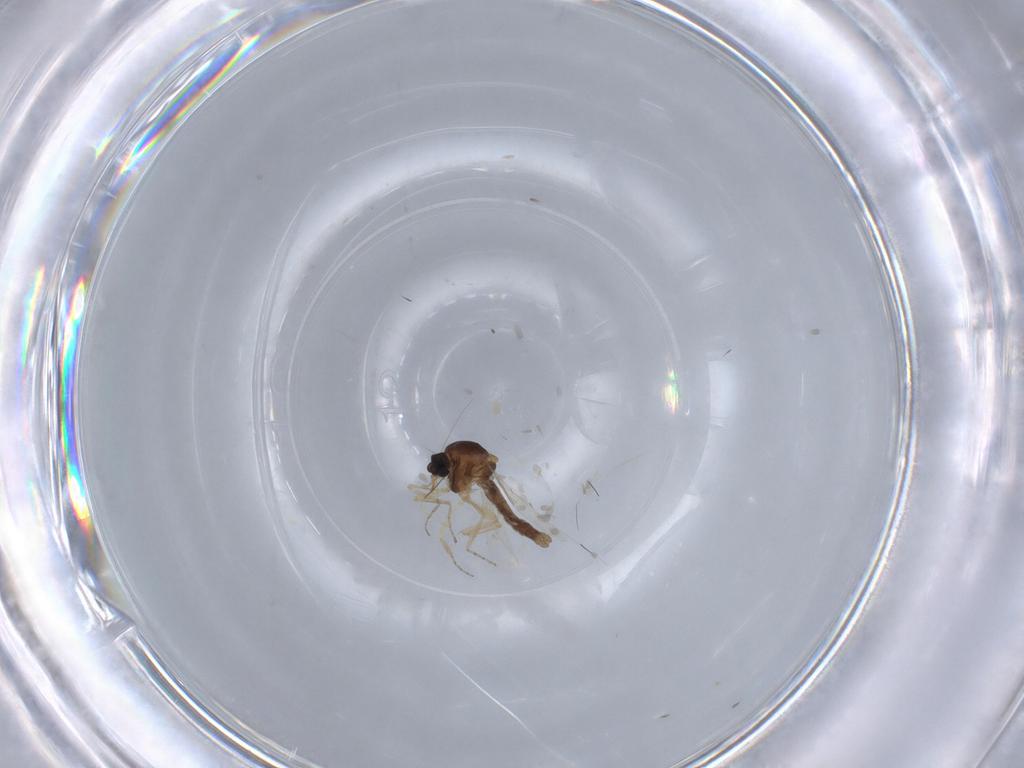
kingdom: Animalia
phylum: Arthropoda
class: Insecta
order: Diptera
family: Ceratopogonidae
